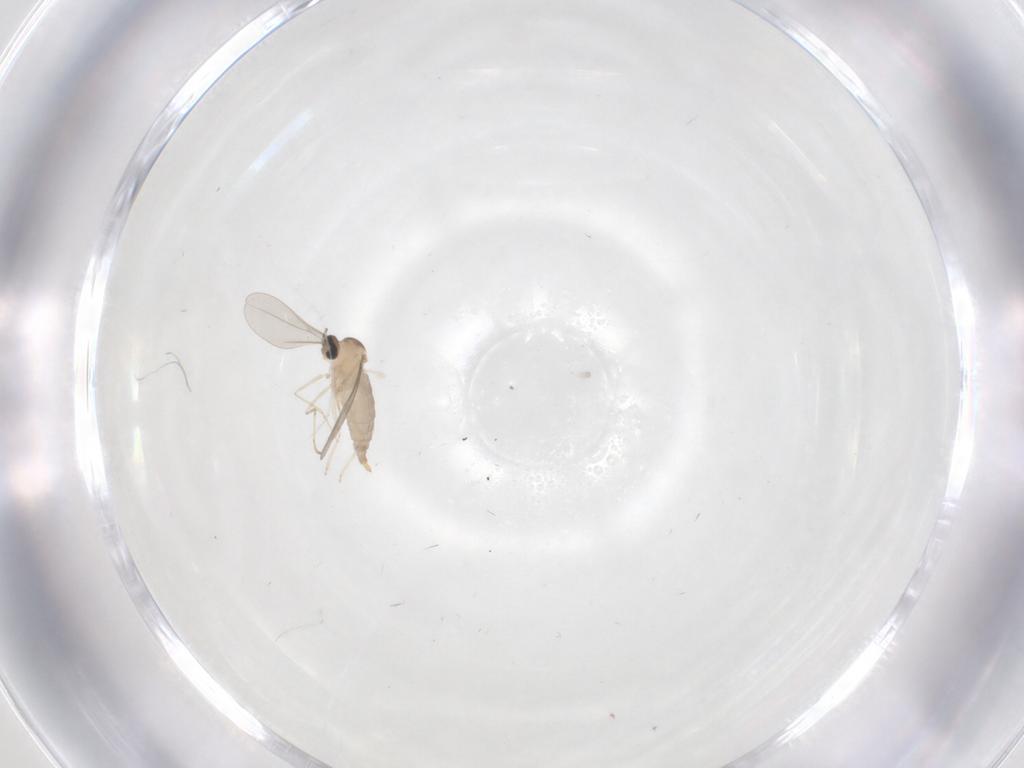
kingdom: Animalia
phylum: Arthropoda
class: Insecta
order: Diptera
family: Cecidomyiidae
